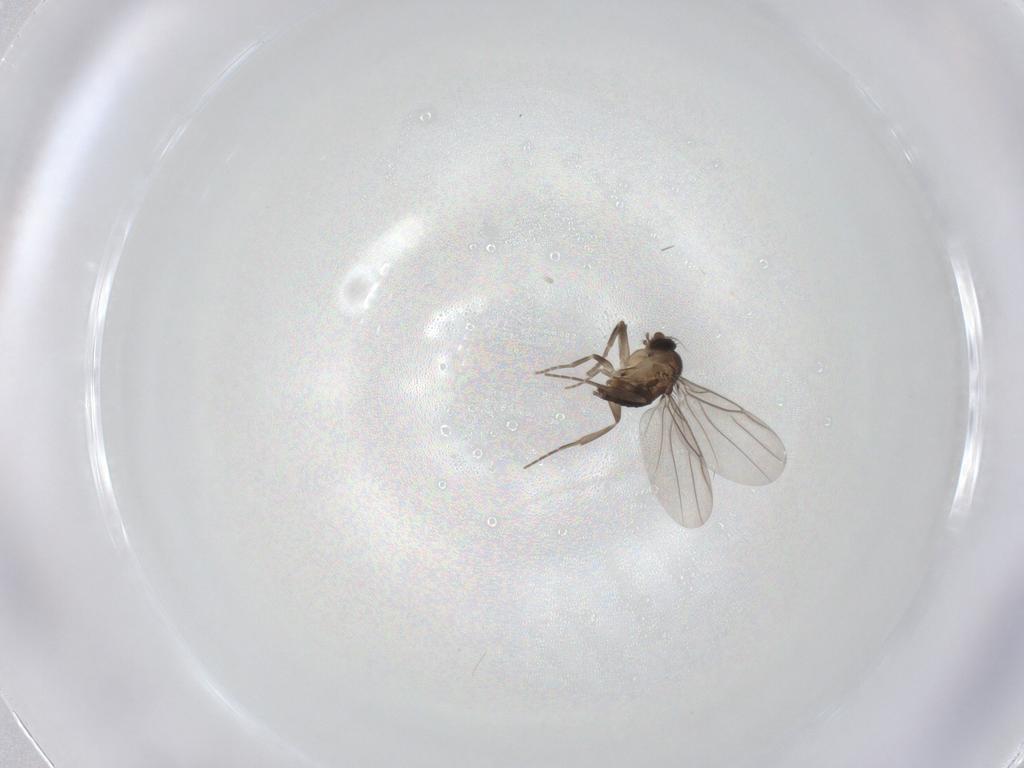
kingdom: Animalia
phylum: Arthropoda
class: Insecta
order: Diptera
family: Phoridae
